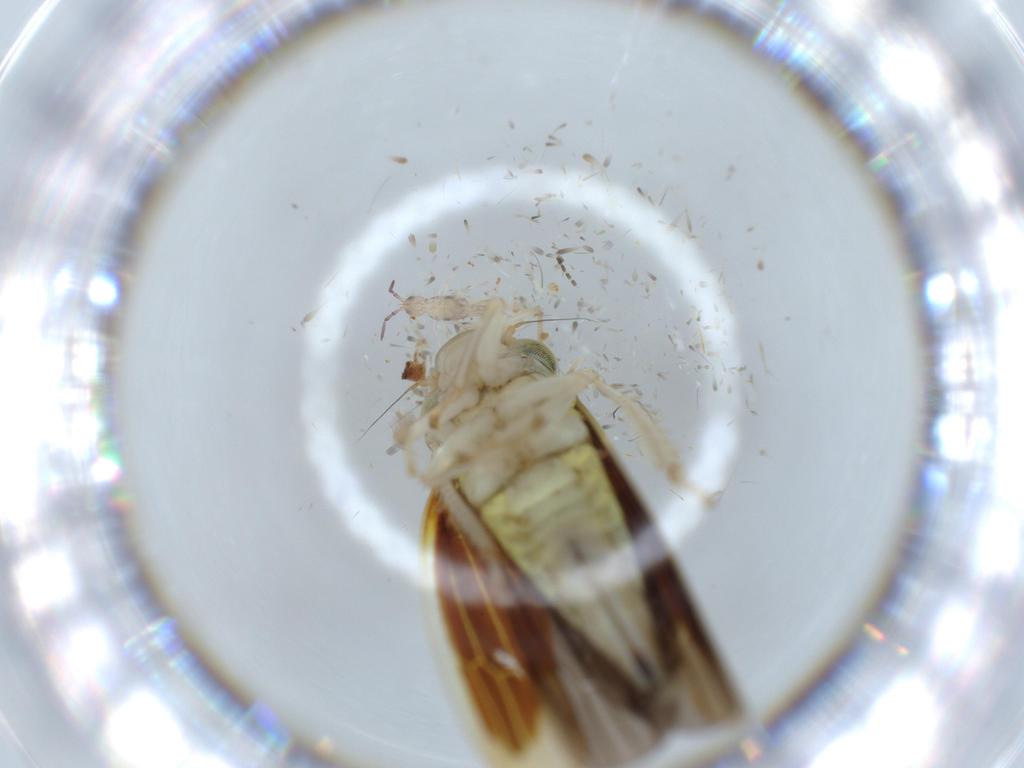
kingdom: Animalia
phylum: Arthropoda
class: Insecta
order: Hemiptera
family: Cicadellidae
